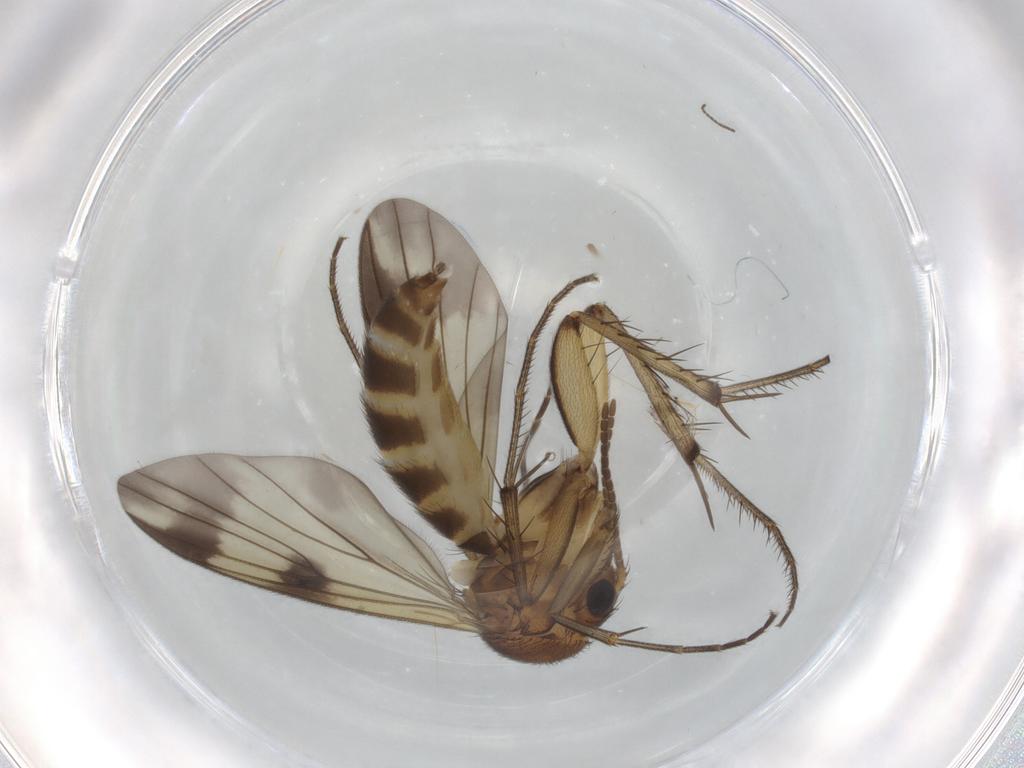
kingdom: Animalia
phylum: Arthropoda
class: Insecta
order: Diptera
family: Mycetophilidae
